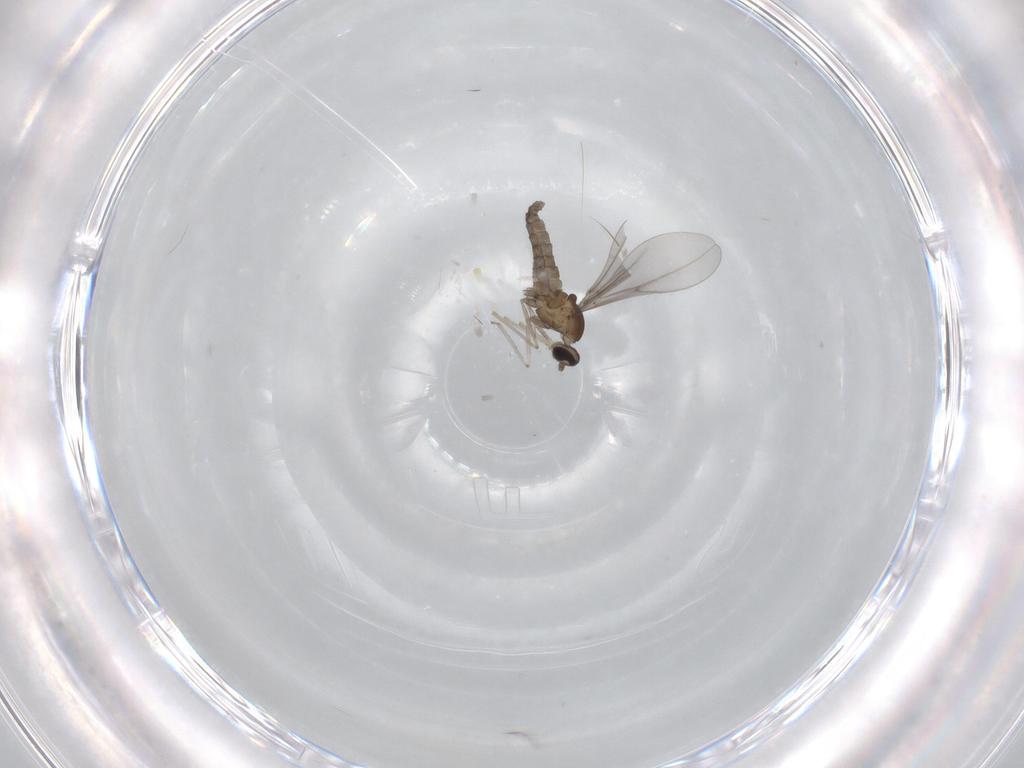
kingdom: Animalia
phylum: Arthropoda
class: Insecta
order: Diptera
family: Cecidomyiidae
